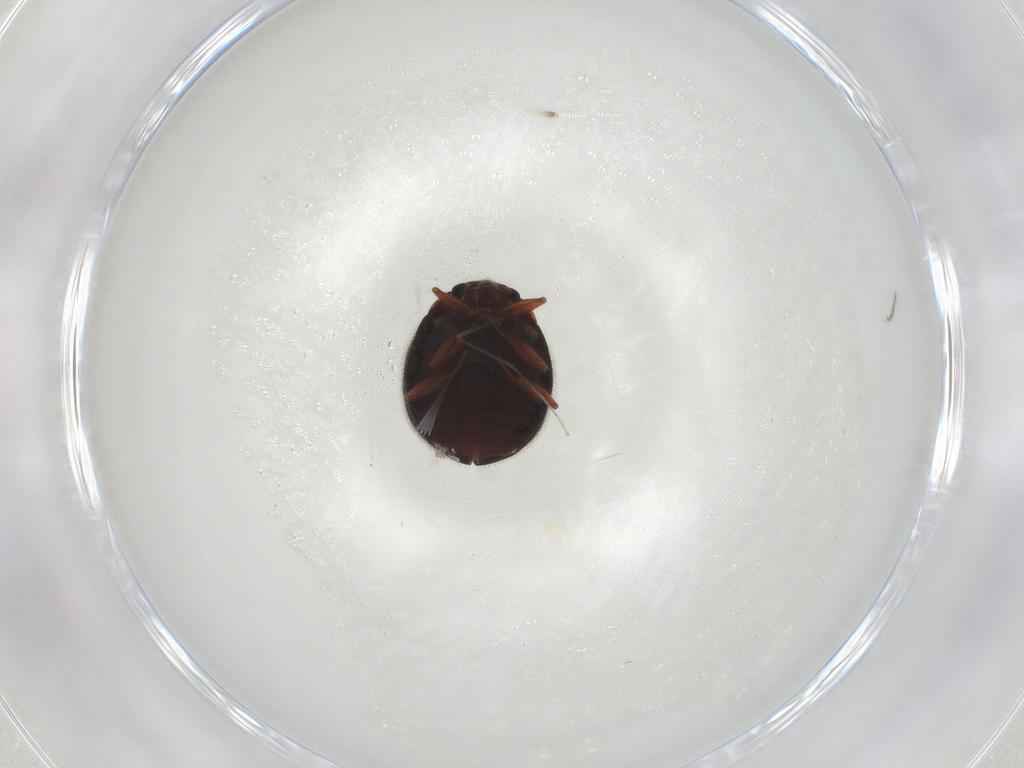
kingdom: Animalia
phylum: Arthropoda
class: Insecta
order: Diptera
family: Cecidomyiidae
